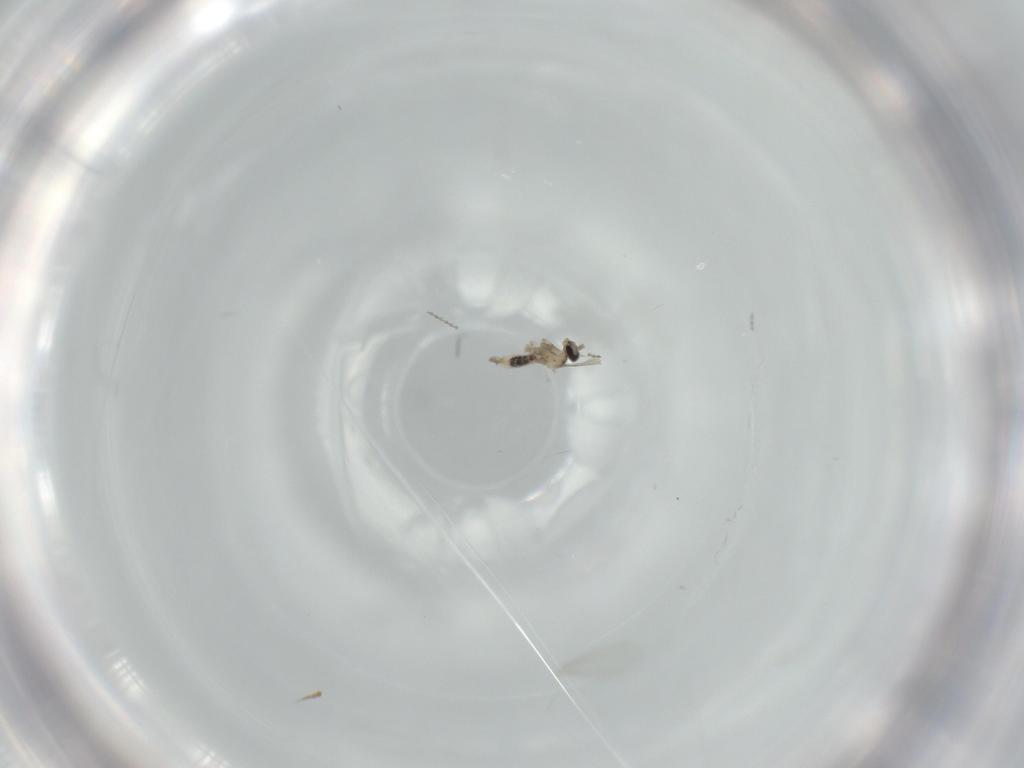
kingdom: Animalia
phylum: Arthropoda
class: Insecta
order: Diptera
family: Cecidomyiidae
